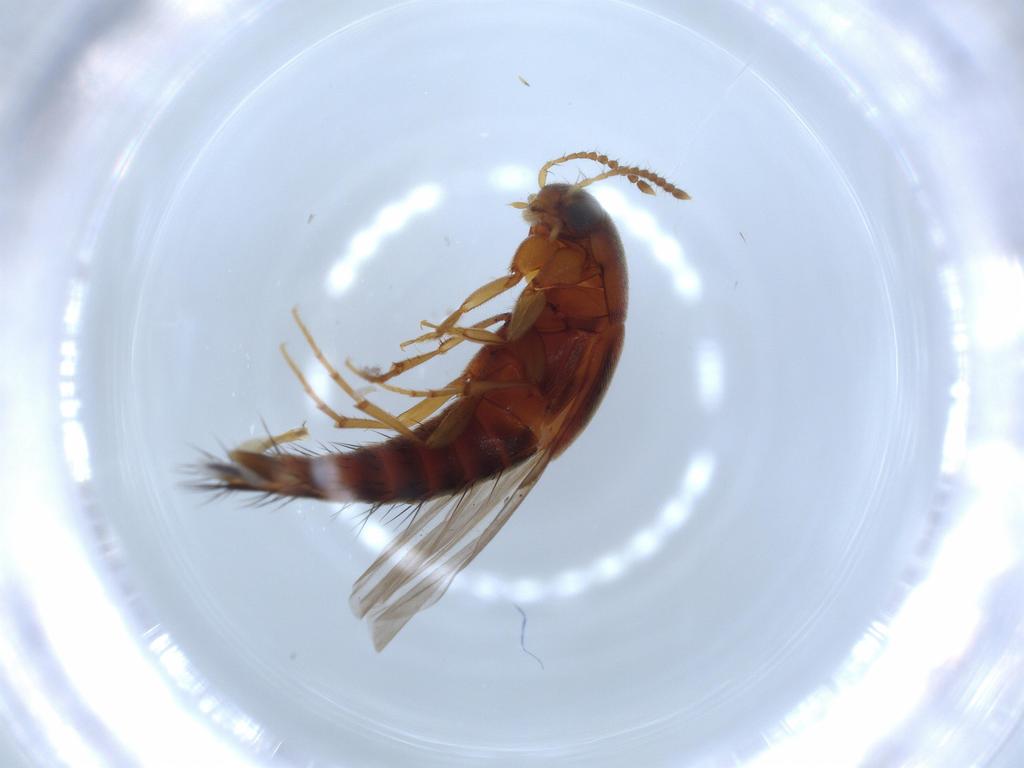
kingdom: Animalia
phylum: Arthropoda
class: Insecta
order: Coleoptera
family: Staphylinidae
